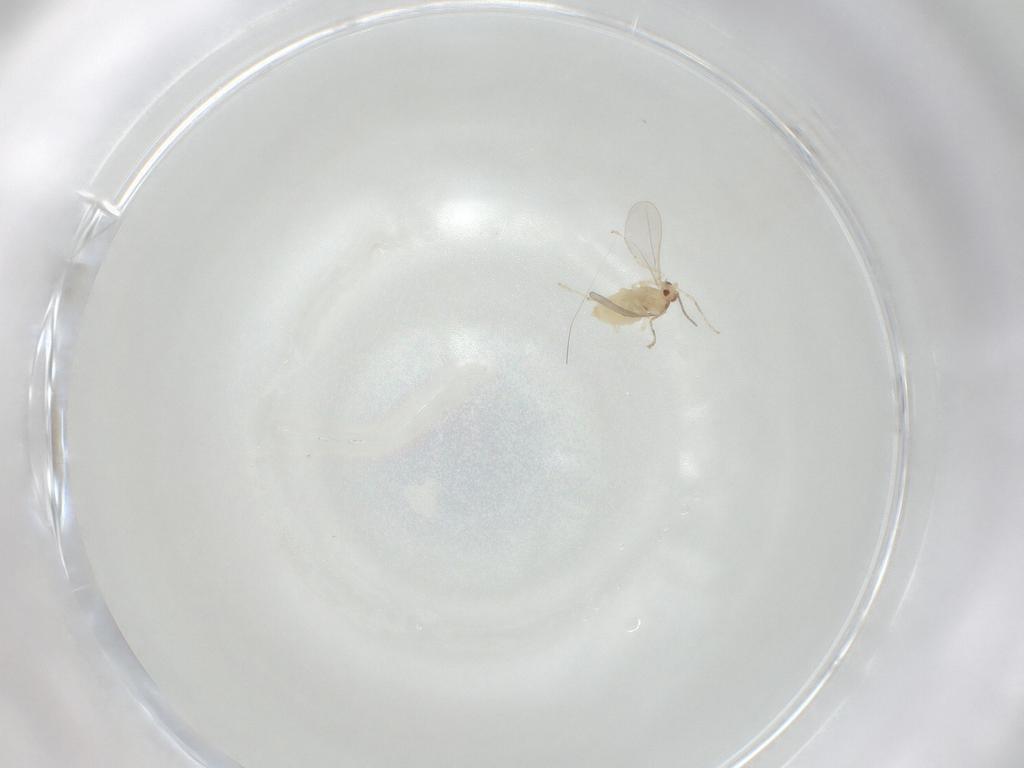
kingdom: Animalia
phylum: Arthropoda
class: Insecta
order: Diptera
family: Cecidomyiidae
